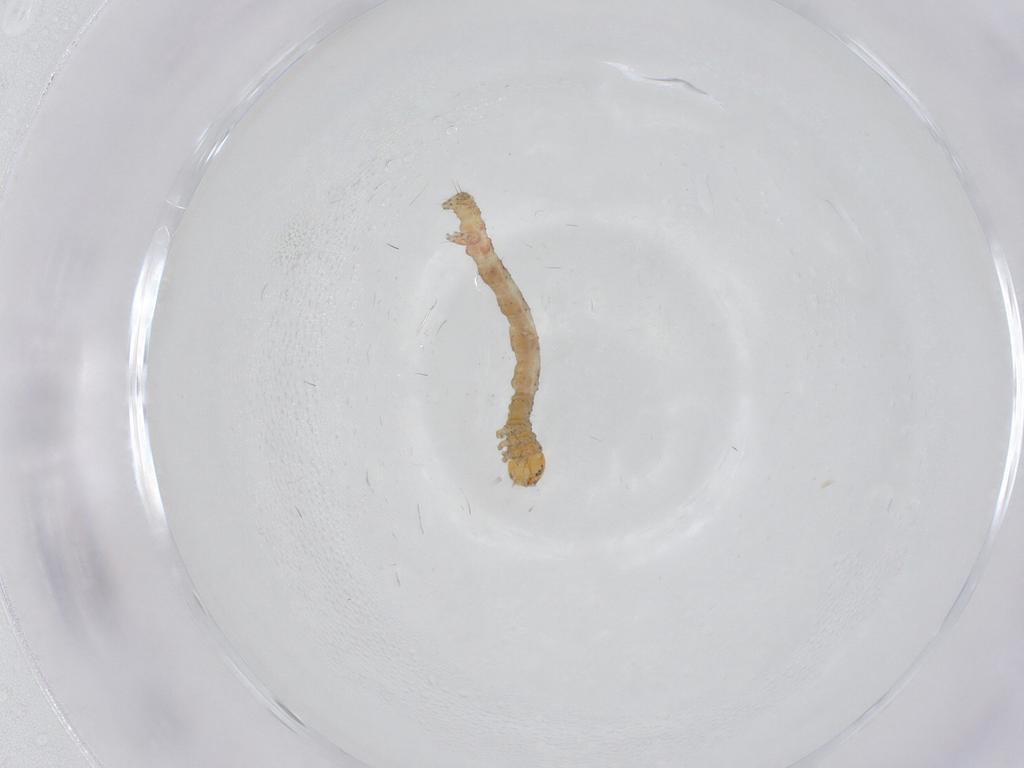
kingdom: Animalia
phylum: Arthropoda
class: Insecta
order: Lepidoptera
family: Geometridae
